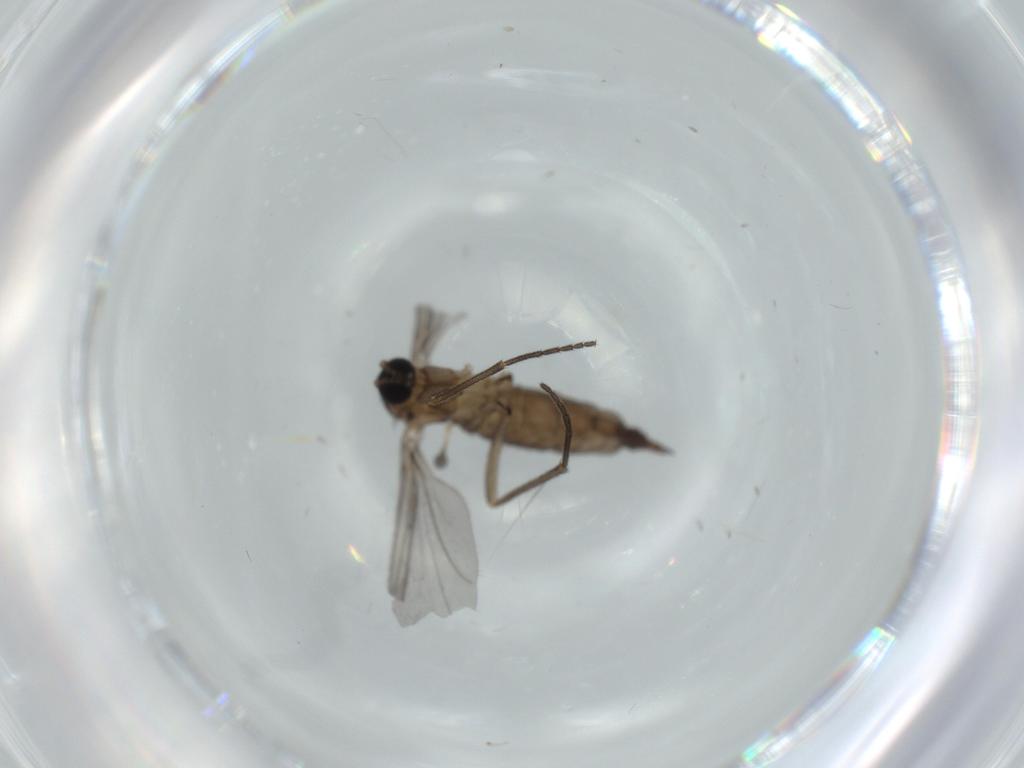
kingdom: Animalia
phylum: Arthropoda
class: Insecta
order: Diptera
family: Sciaridae
